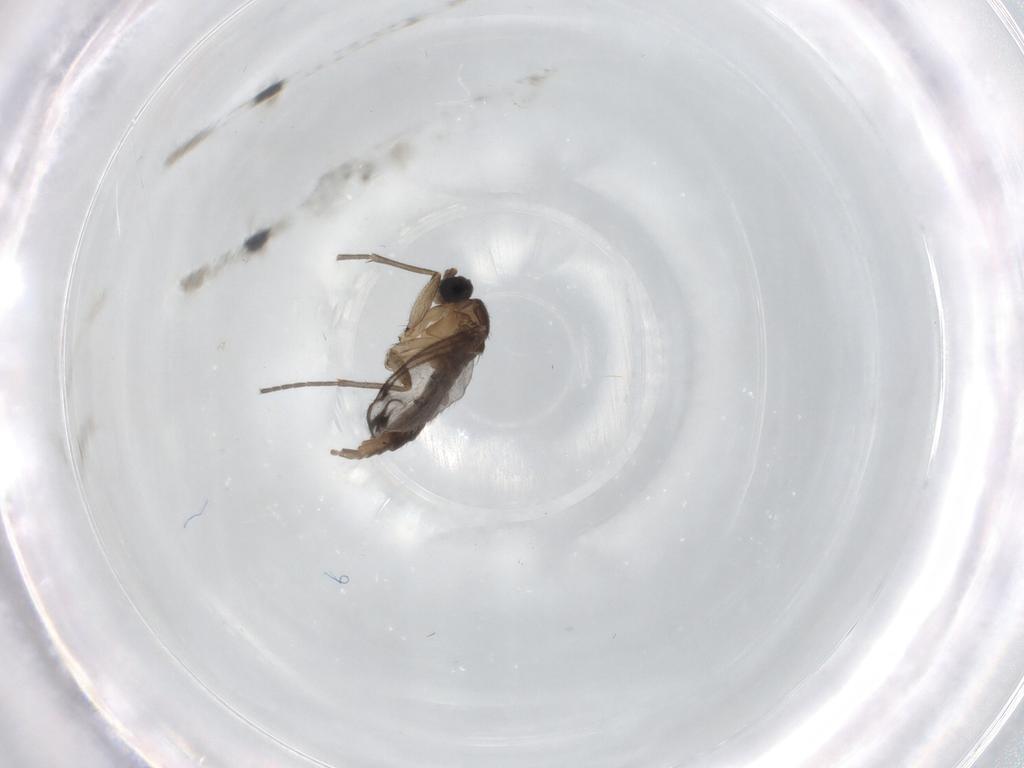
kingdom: Animalia
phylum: Arthropoda
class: Insecta
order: Diptera
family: Sciaridae
